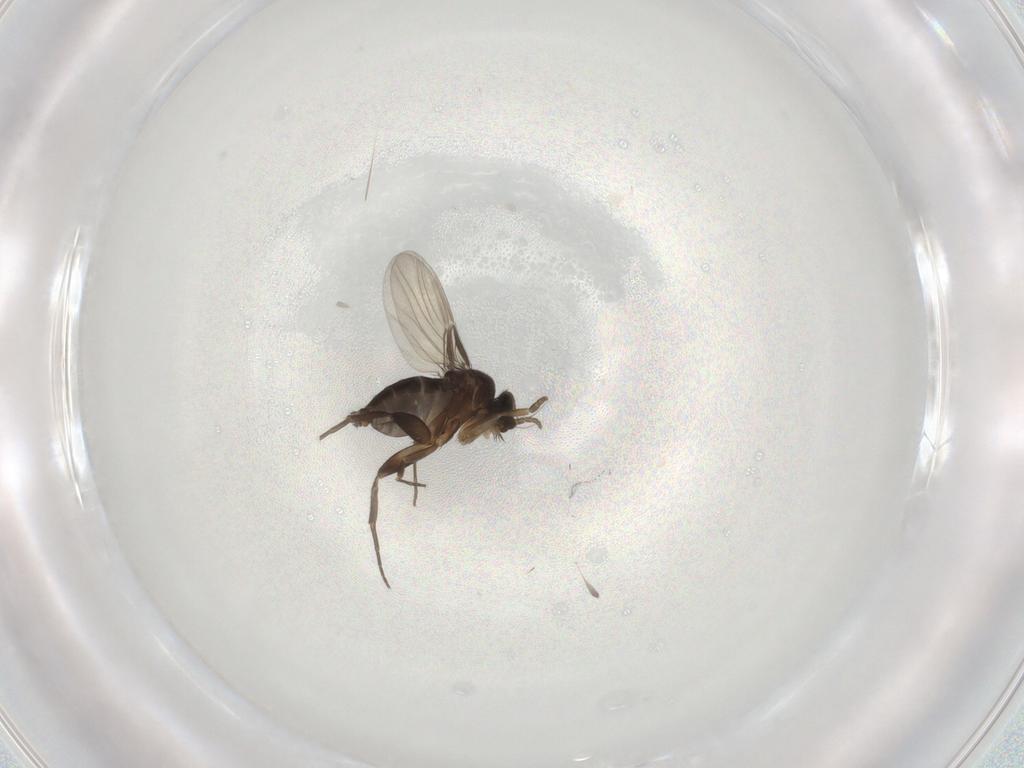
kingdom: Animalia
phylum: Arthropoda
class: Insecta
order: Diptera
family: Phoridae
